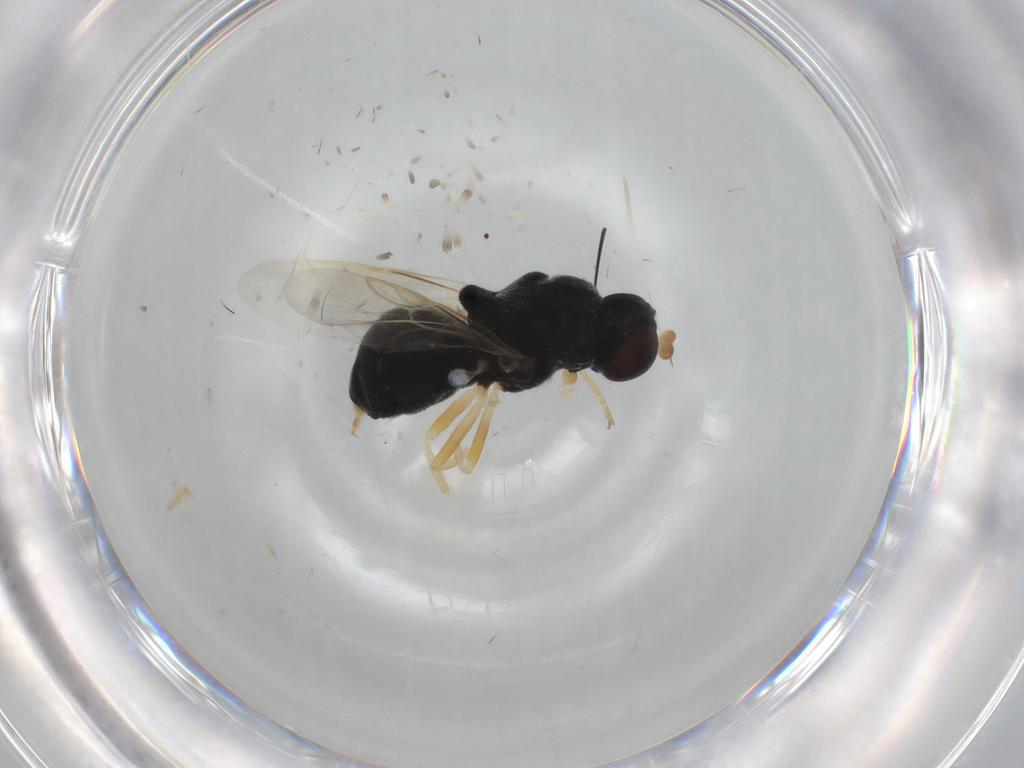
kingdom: Animalia
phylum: Arthropoda
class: Insecta
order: Diptera
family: Stratiomyidae
